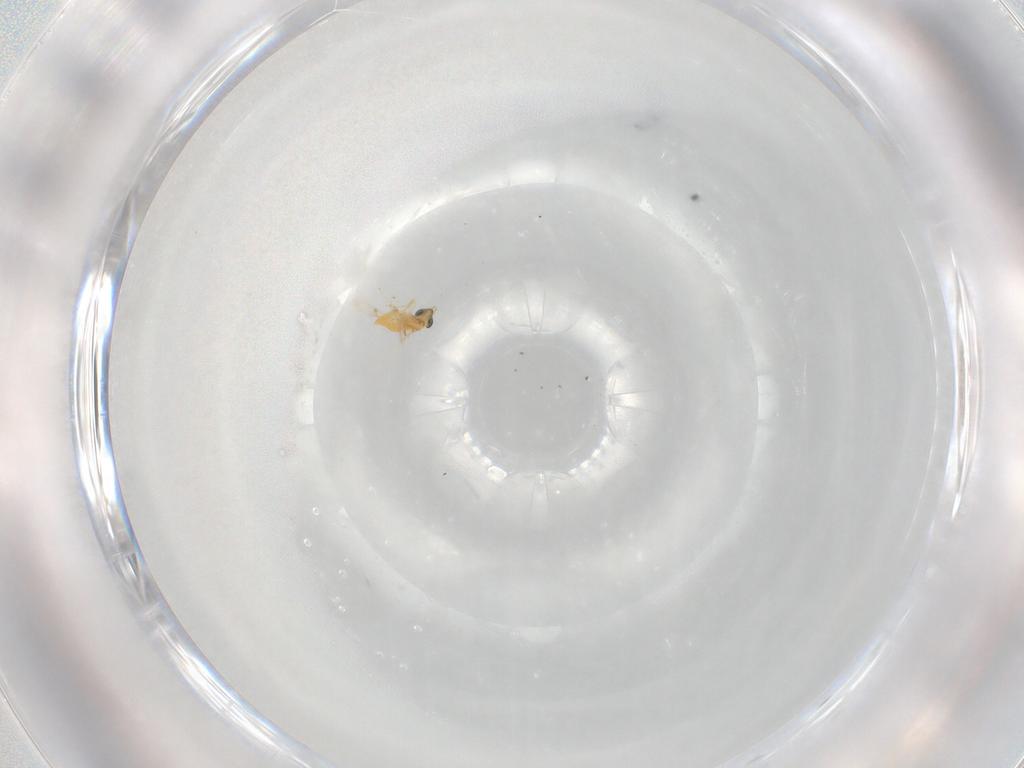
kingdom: Animalia
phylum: Arthropoda
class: Insecta
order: Hymenoptera
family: Trichogrammatidae
